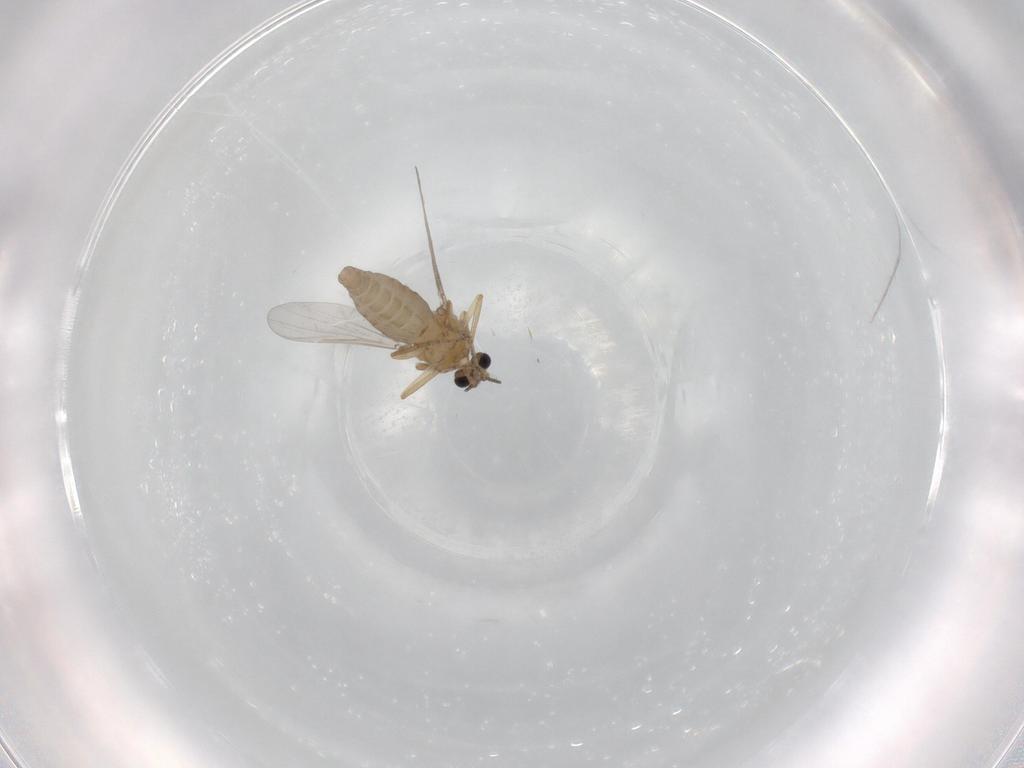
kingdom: Animalia
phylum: Arthropoda
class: Insecta
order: Diptera
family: Ceratopogonidae
